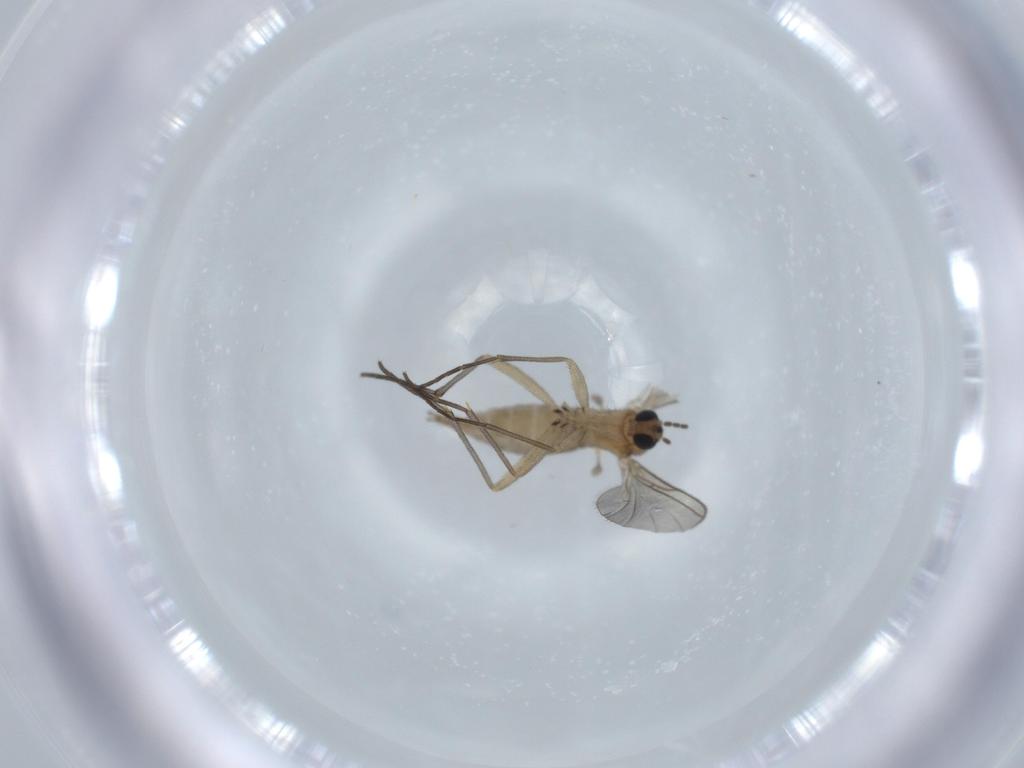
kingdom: Animalia
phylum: Arthropoda
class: Insecta
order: Diptera
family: Sciaridae
